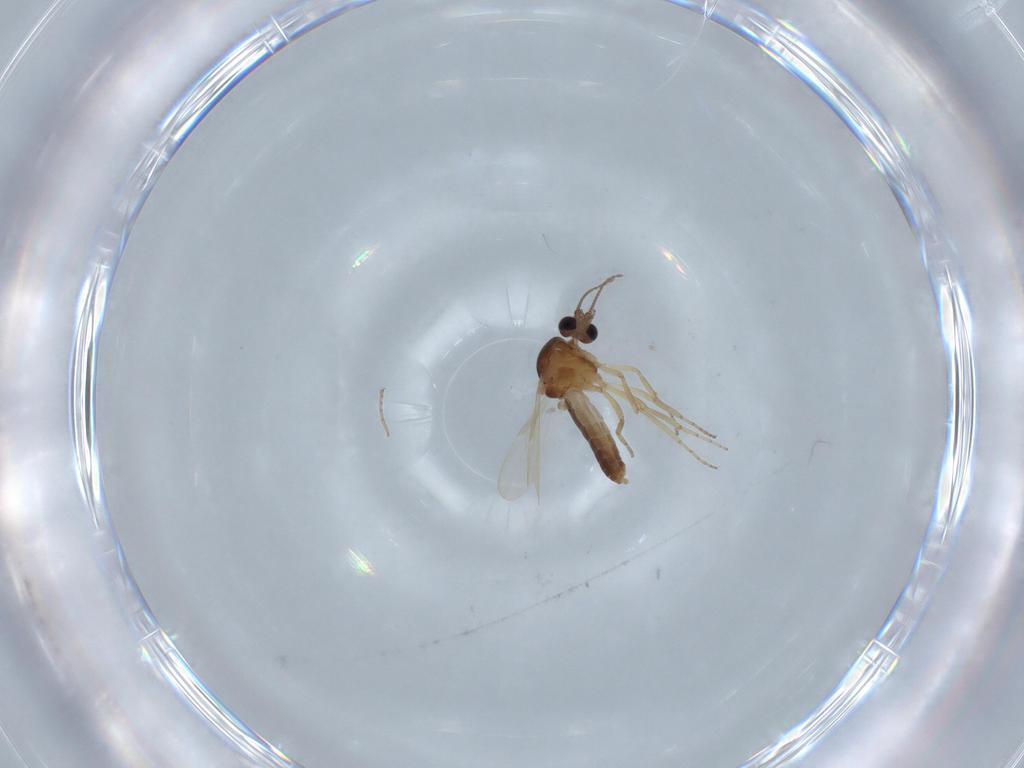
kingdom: Animalia
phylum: Arthropoda
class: Insecta
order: Diptera
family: Ceratopogonidae
